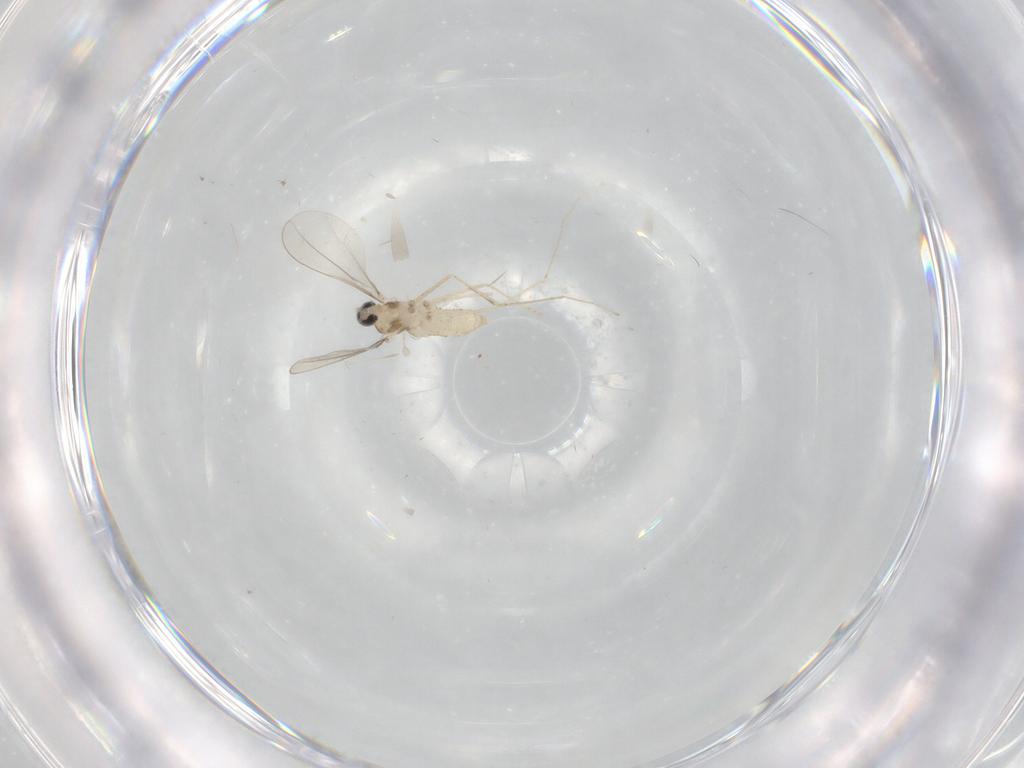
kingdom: Animalia
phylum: Arthropoda
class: Insecta
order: Diptera
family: Cecidomyiidae
